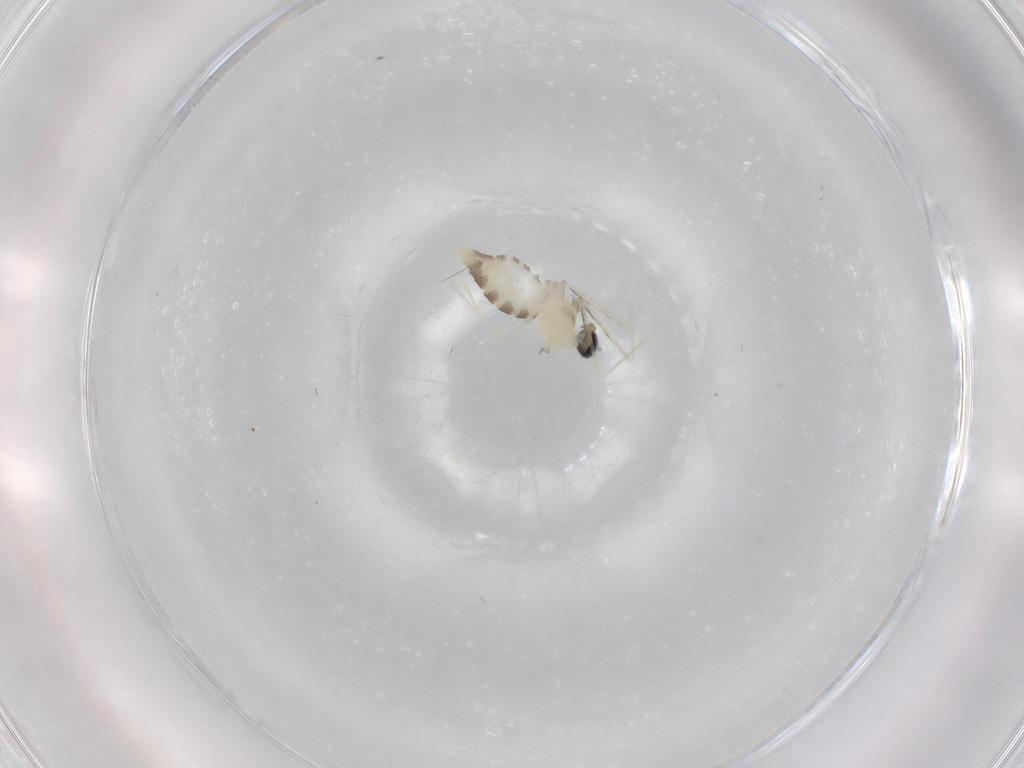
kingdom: Animalia
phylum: Arthropoda
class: Insecta
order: Diptera
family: Cecidomyiidae
